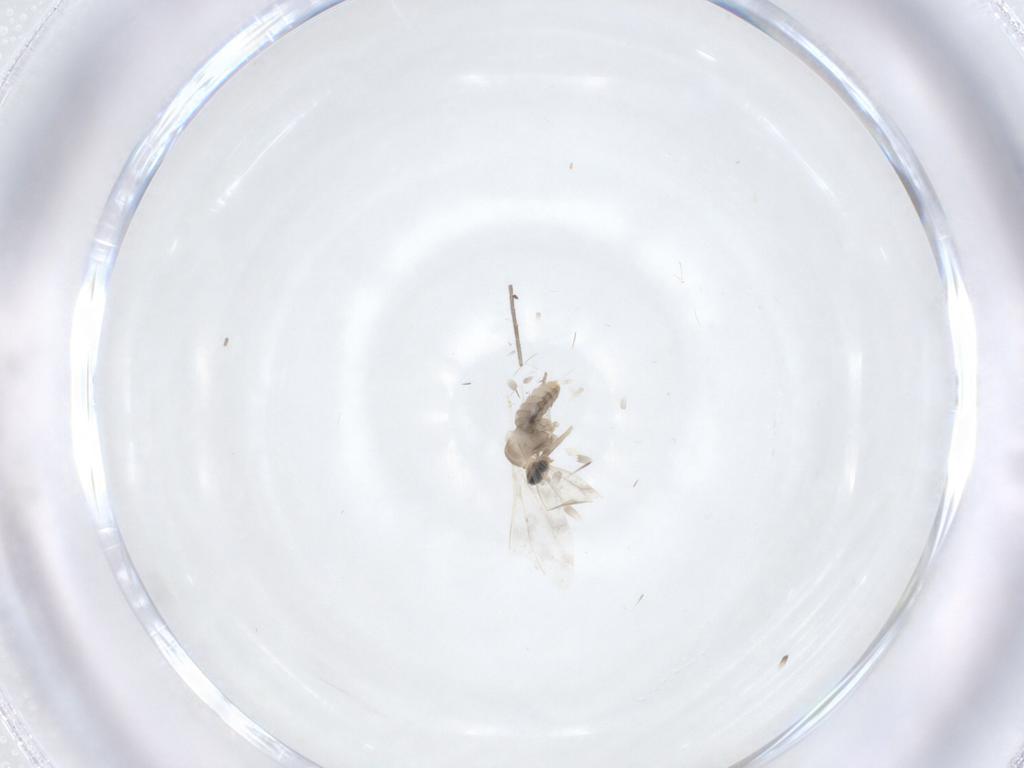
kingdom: Animalia
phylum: Arthropoda
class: Insecta
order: Diptera
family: Psychodidae
